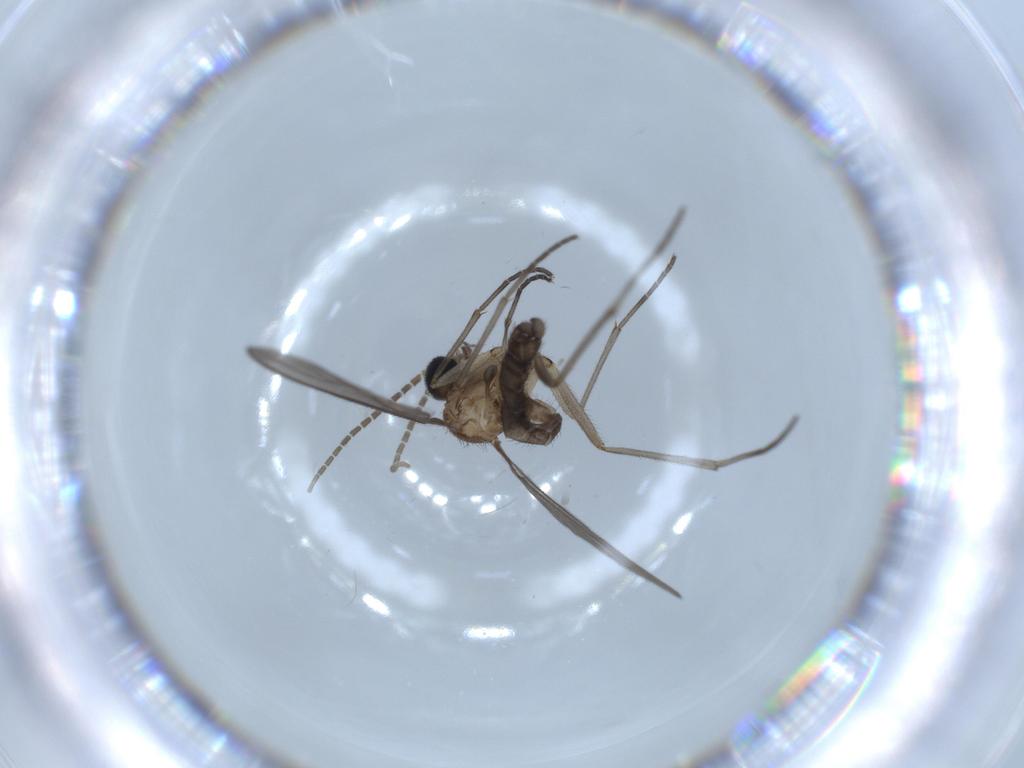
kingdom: Animalia
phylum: Arthropoda
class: Insecta
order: Diptera
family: Sciaridae
